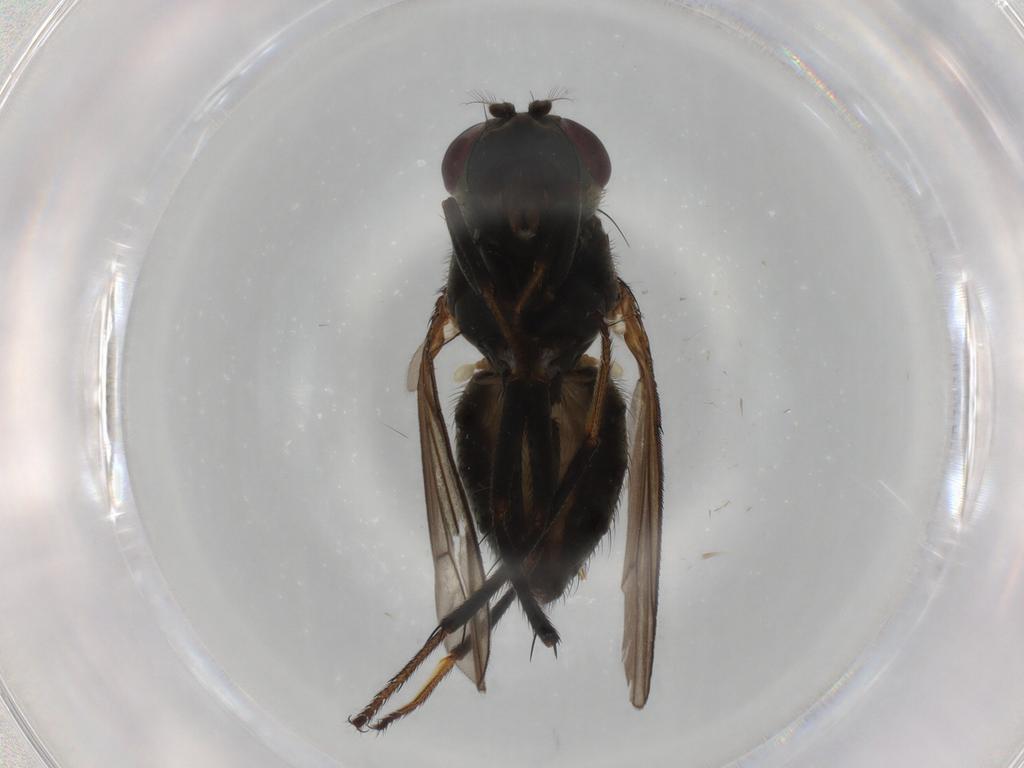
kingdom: Animalia
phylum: Arthropoda
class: Insecta
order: Diptera
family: Ephydridae
